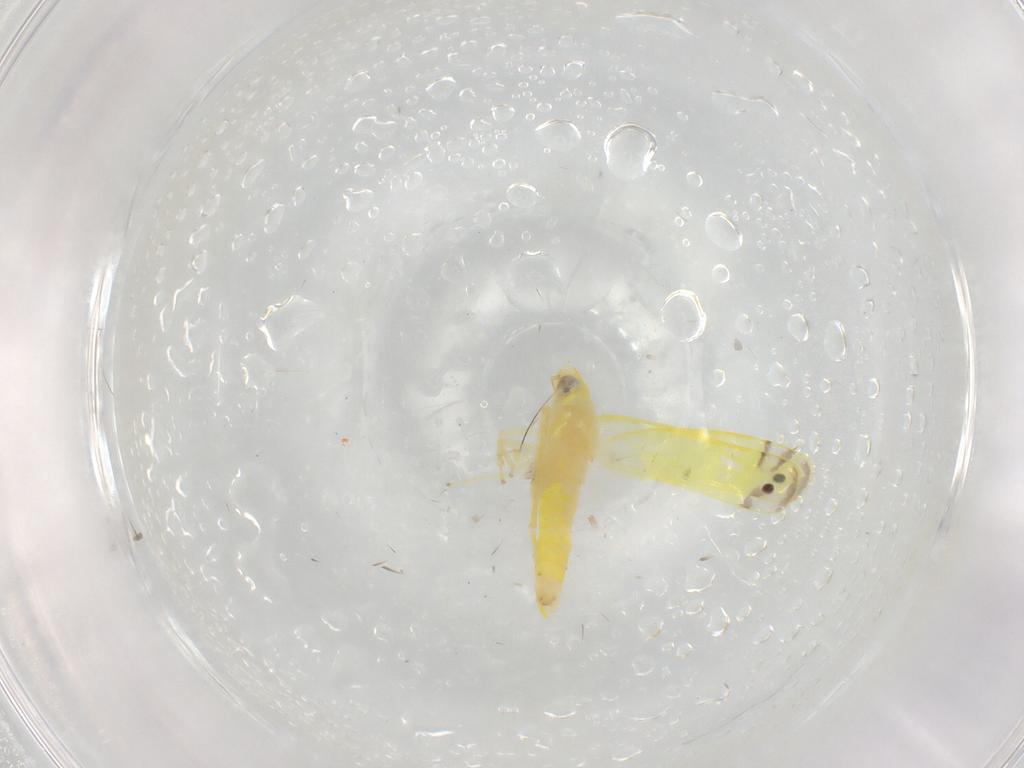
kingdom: Animalia
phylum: Arthropoda
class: Insecta
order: Hemiptera
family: Cicadellidae
